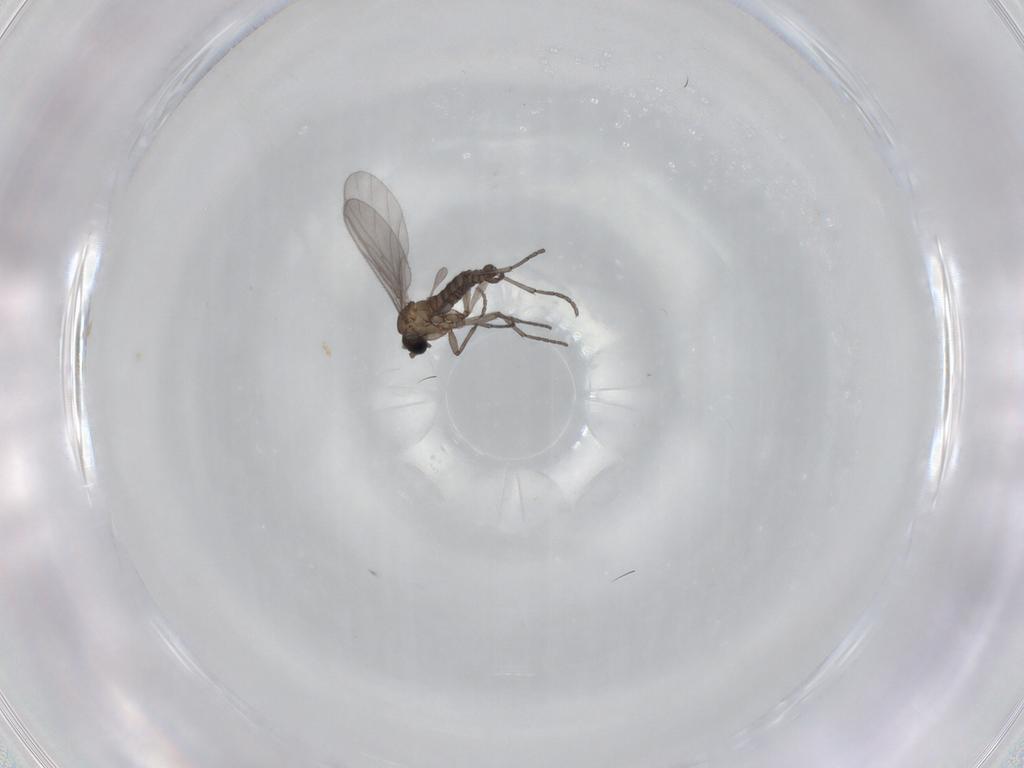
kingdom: Animalia
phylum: Arthropoda
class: Insecta
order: Diptera
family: Sciaridae
